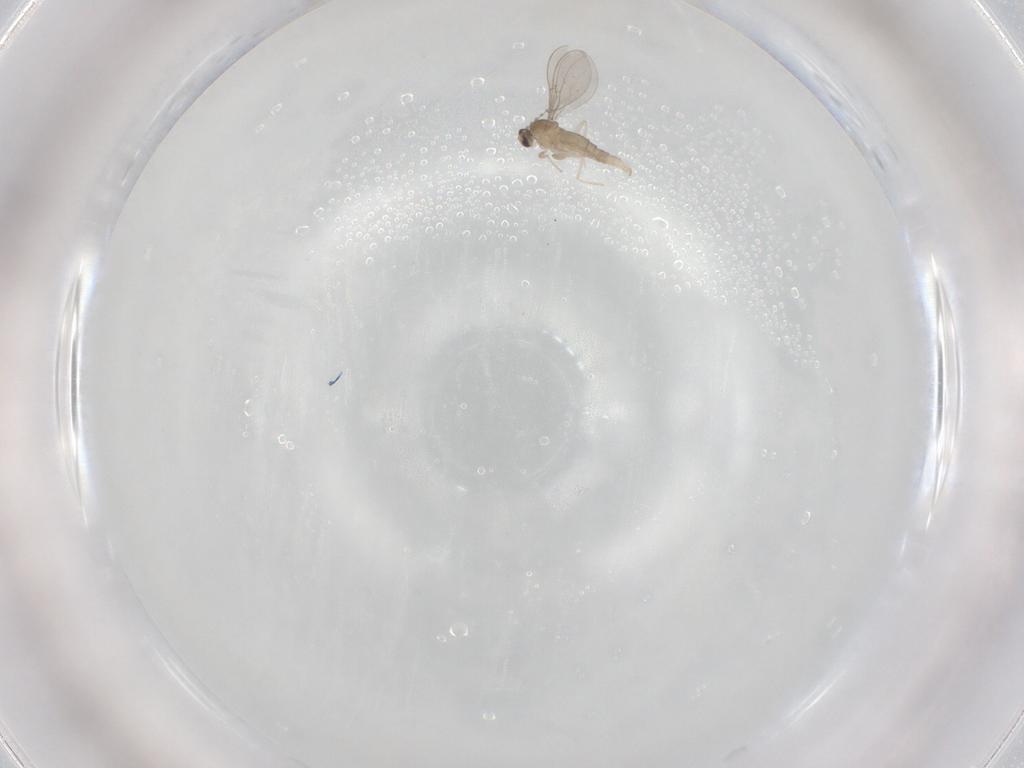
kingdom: Animalia
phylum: Arthropoda
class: Insecta
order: Diptera
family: Cecidomyiidae
